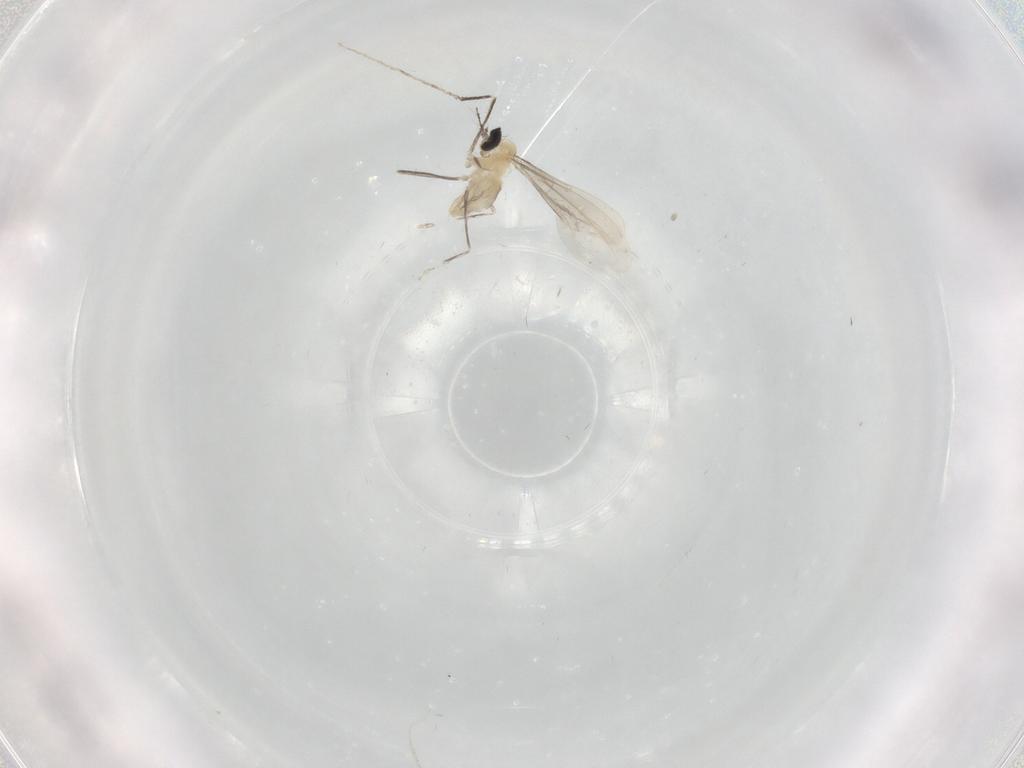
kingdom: Animalia
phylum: Arthropoda
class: Insecta
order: Diptera
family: Cecidomyiidae
